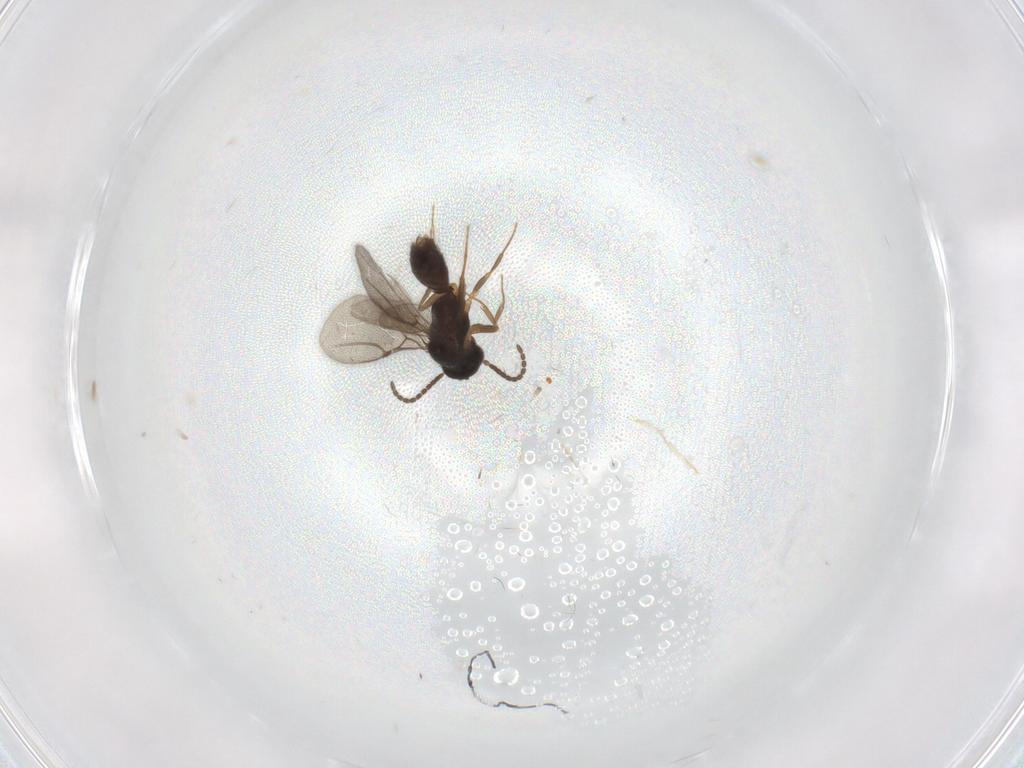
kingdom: Animalia
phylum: Arthropoda
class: Insecta
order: Hymenoptera
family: Bethylidae
